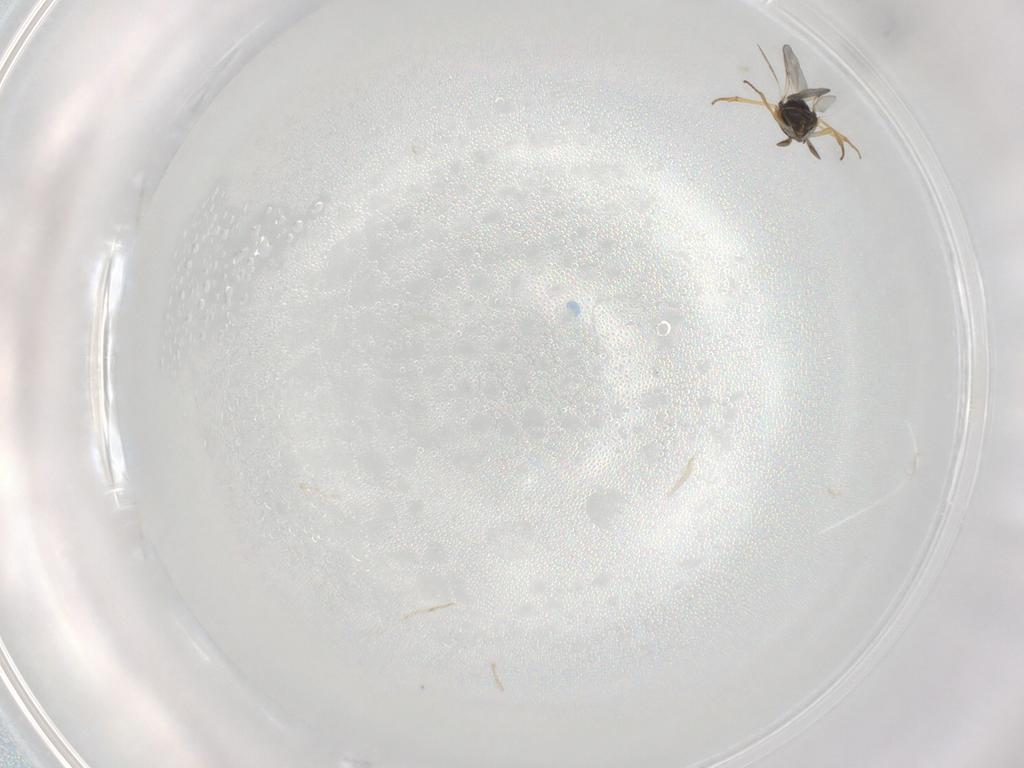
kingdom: Animalia
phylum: Arthropoda
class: Insecta
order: Hymenoptera
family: Encyrtidae
